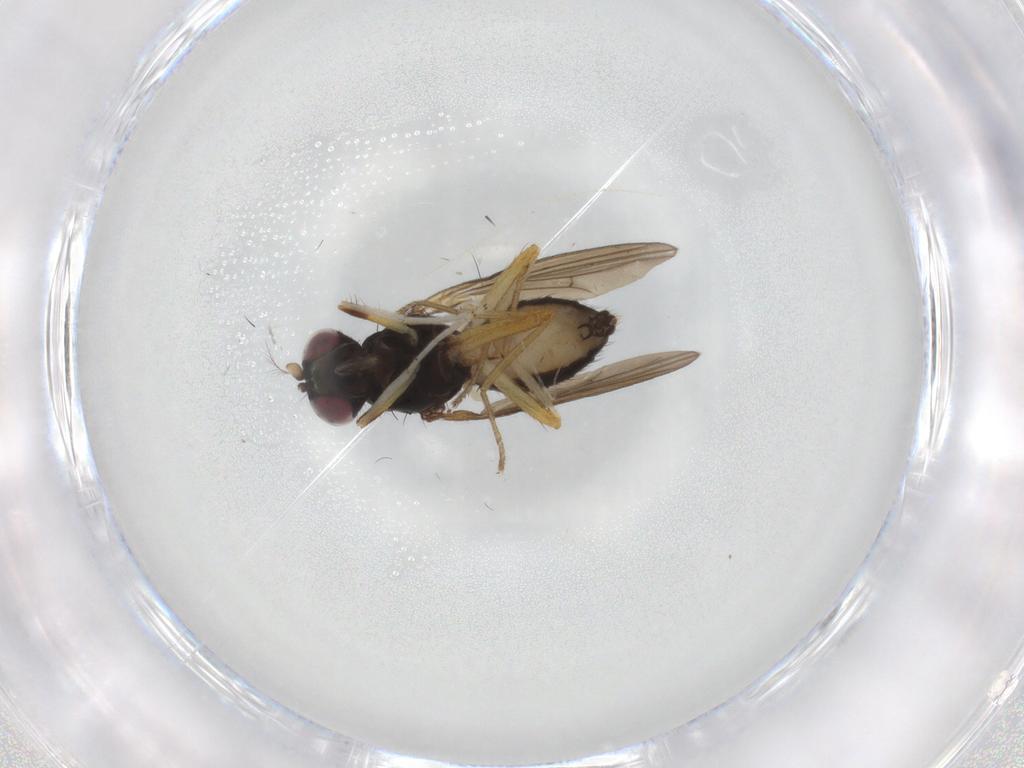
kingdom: Animalia
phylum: Arthropoda
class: Insecta
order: Diptera
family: Lauxaniidae
